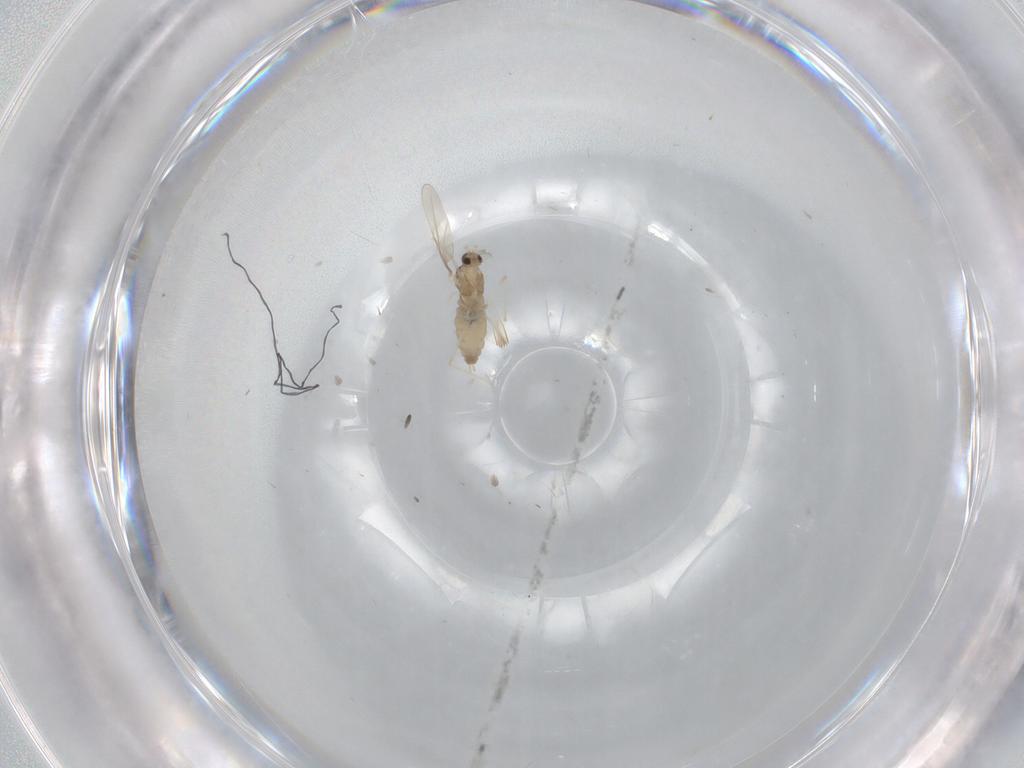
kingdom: Animalia
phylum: Arthropoda
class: Insecta
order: Diptera
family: Cecidomyiidae
